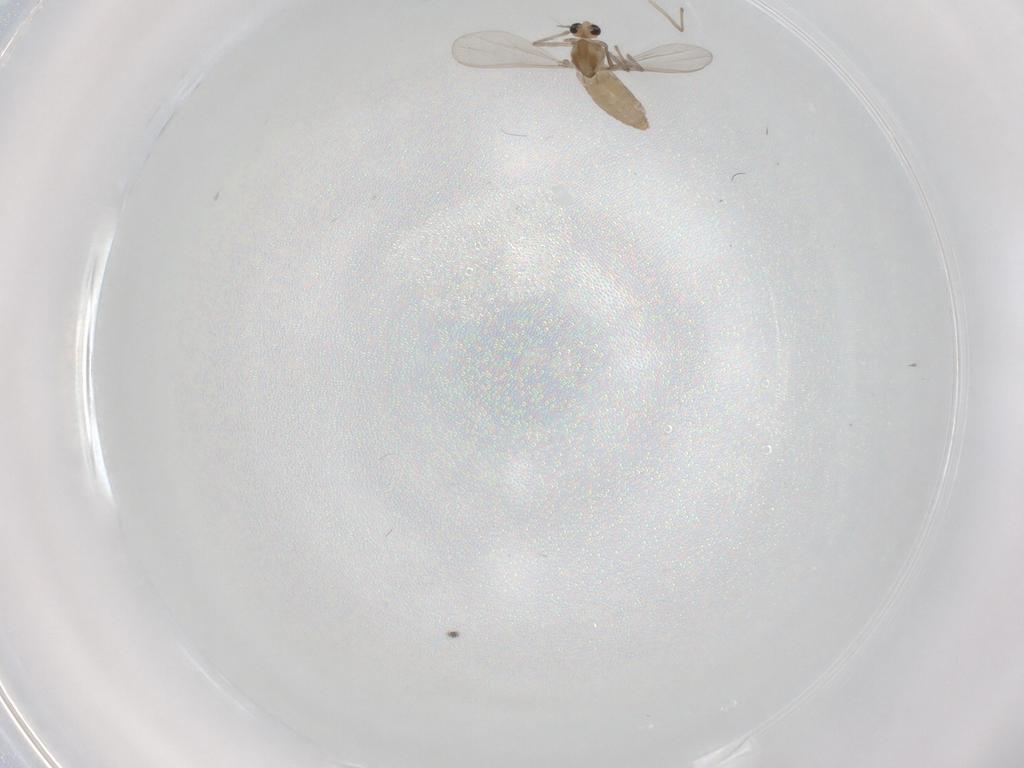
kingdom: Animalia
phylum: Arthropoda
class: Insecta
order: Diptera
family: Chironomidae
